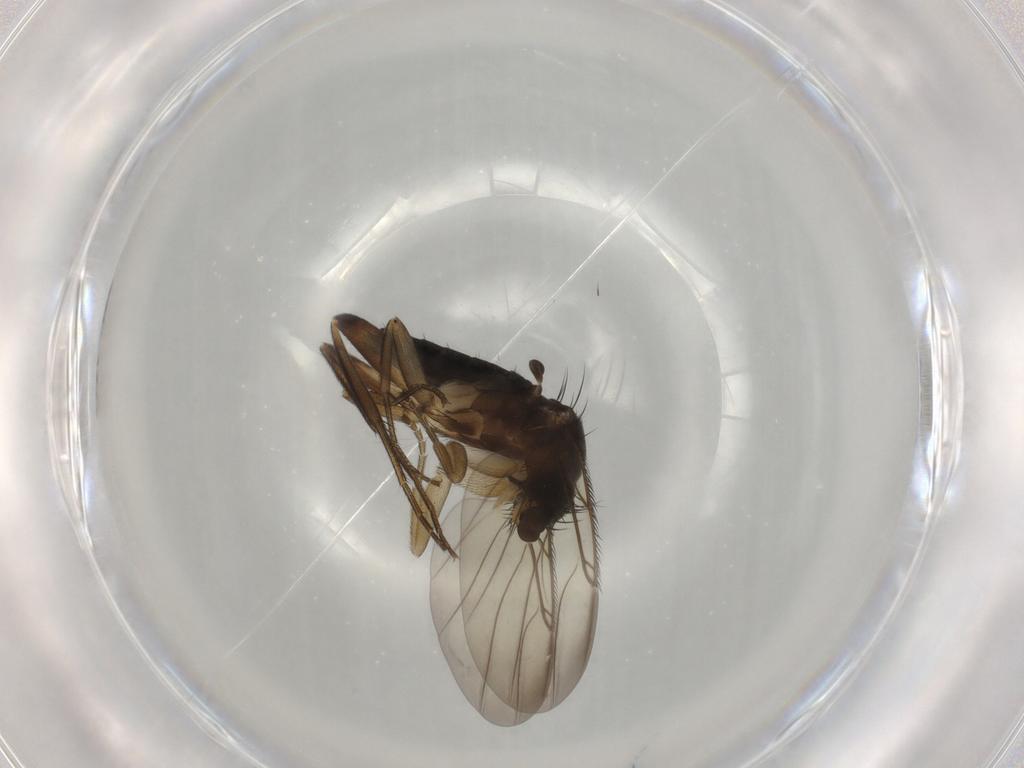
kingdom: Animalia
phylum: Arthropoda
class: Insecta
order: Diptera
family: Phoridae
